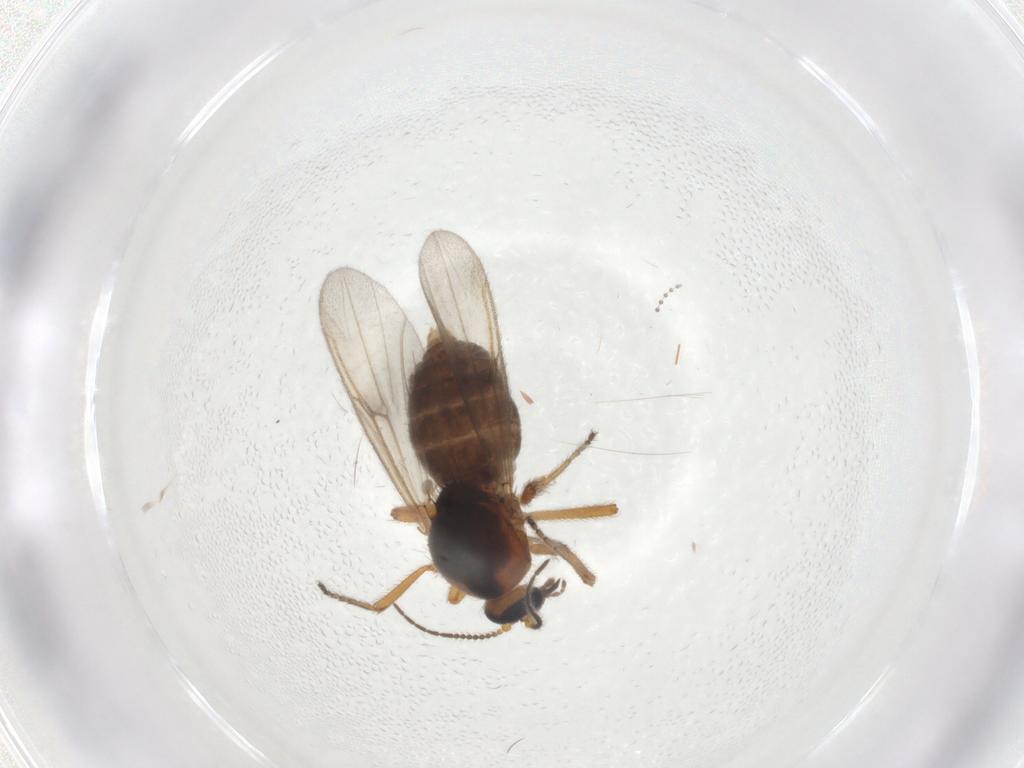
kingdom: Animalia
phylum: Arthropoda
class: Insecta
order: Diptera
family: Ceratopogonidae
